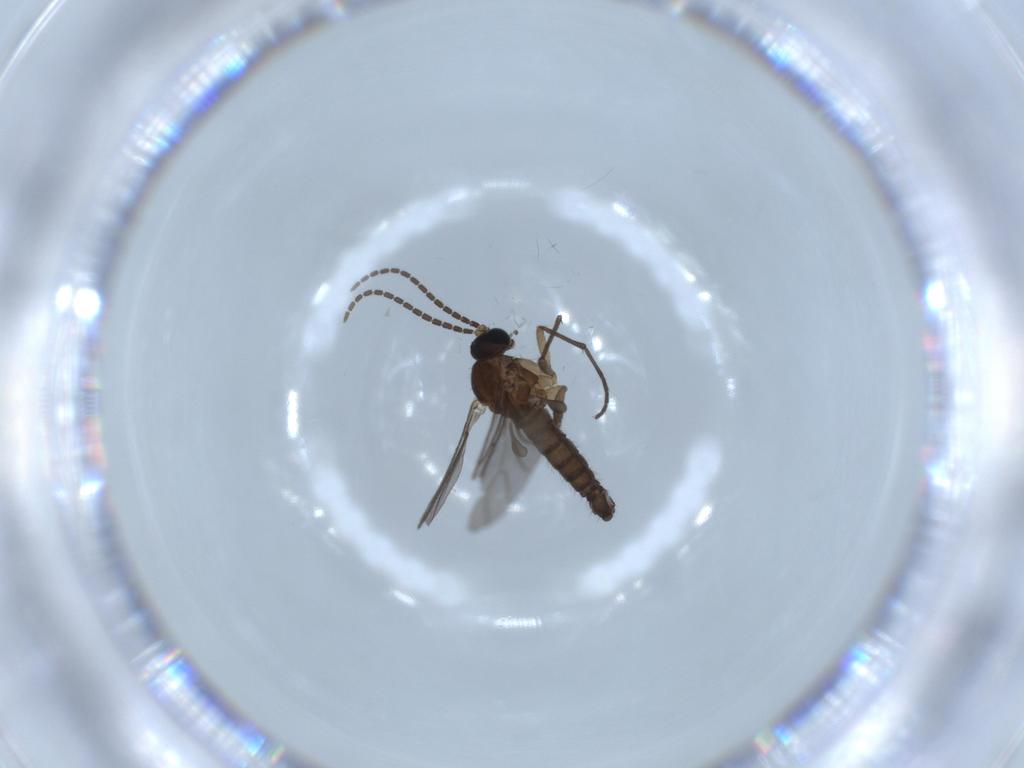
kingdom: Animalia
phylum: Arthropoda
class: Insecta
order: Diptera
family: Sciaridae
